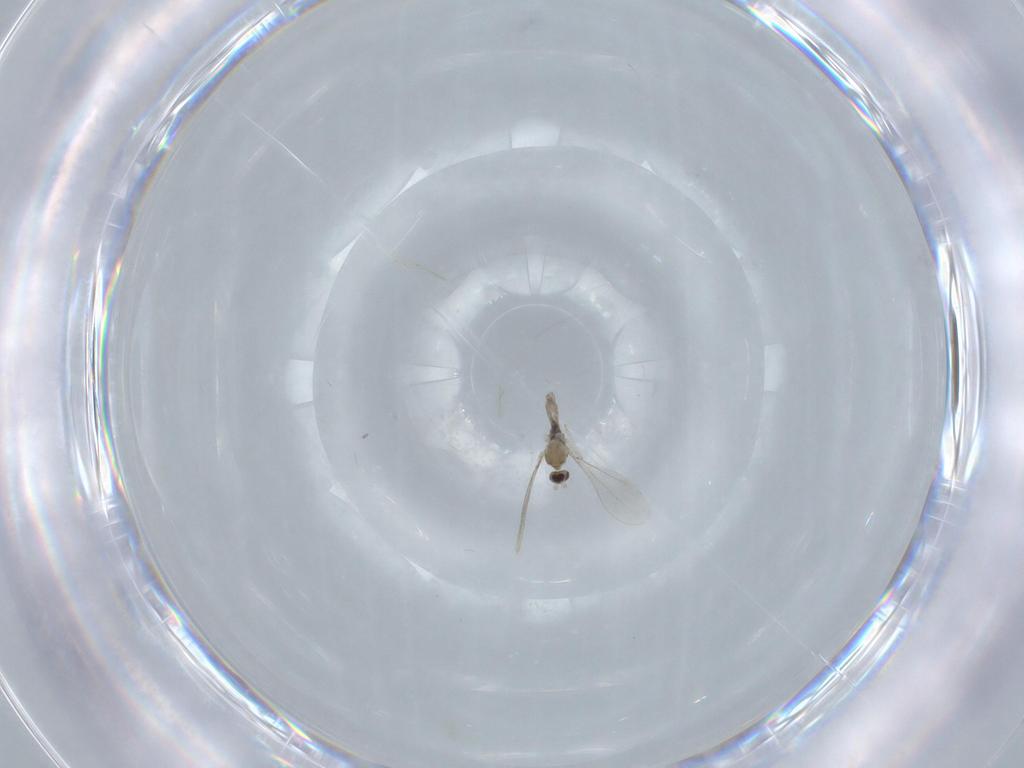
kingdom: Animalia
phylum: Arthropoda
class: Insecta
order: Diptera
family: Cecidomyiidae
